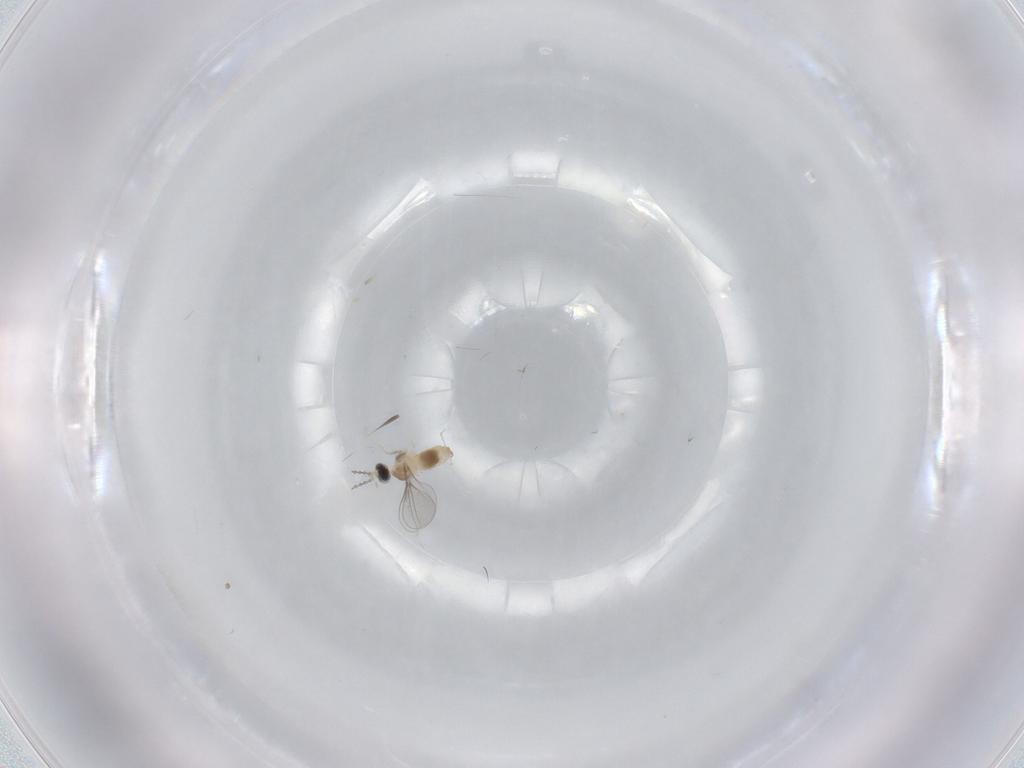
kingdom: Animalia
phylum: Arthropoda
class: Insecta
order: Diptera
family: Cecidomyiidae
